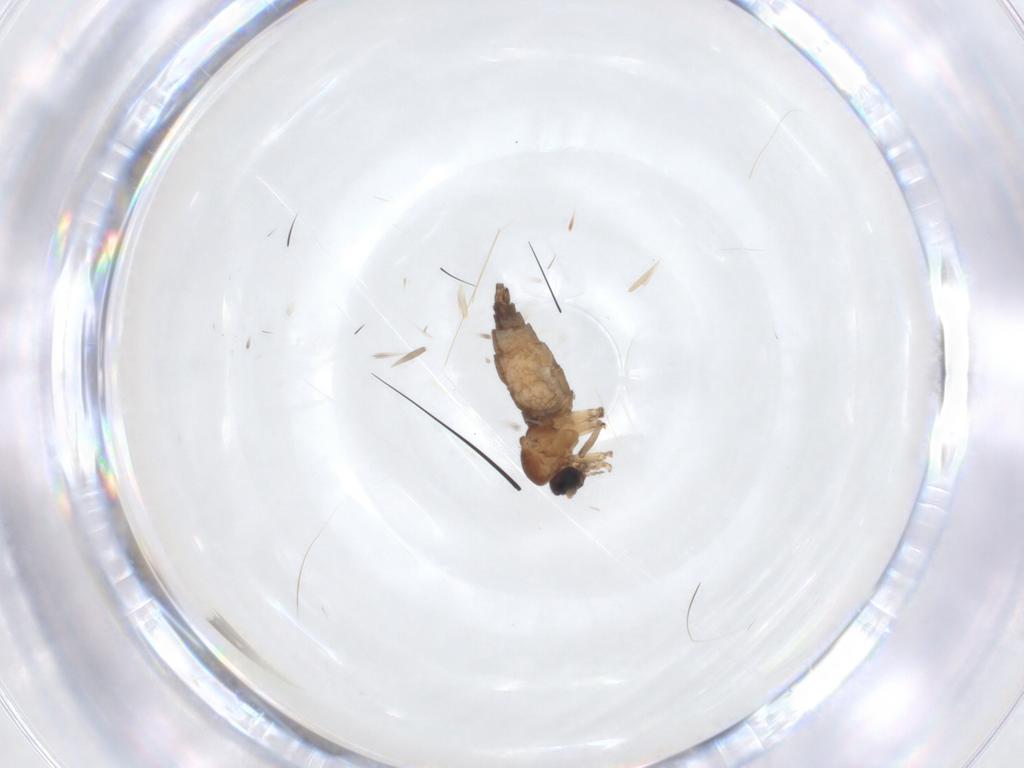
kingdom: Animalia
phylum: Arthropoda
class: Insecta
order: Diptera
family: Sciaridae
